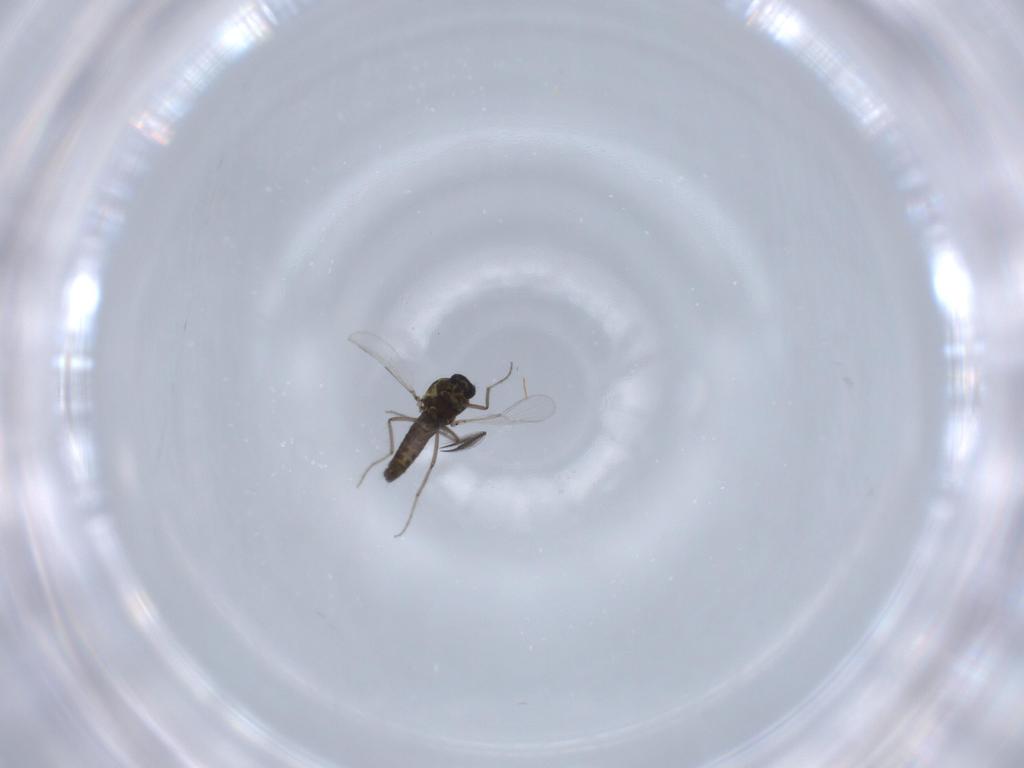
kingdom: Animalia
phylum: Arthropoda
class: Insecta
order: Diptera
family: Ceratopogonidae
